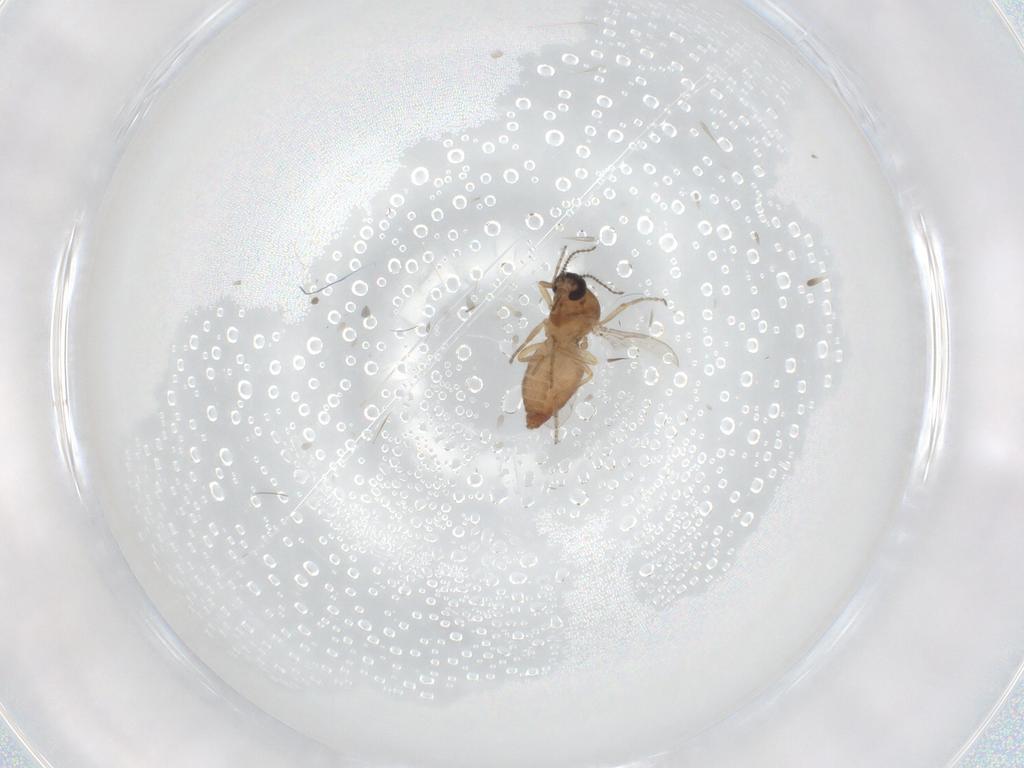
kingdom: Animalia
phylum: Arthropoda
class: Insecta
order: Diptera
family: Ceratopogonidae
